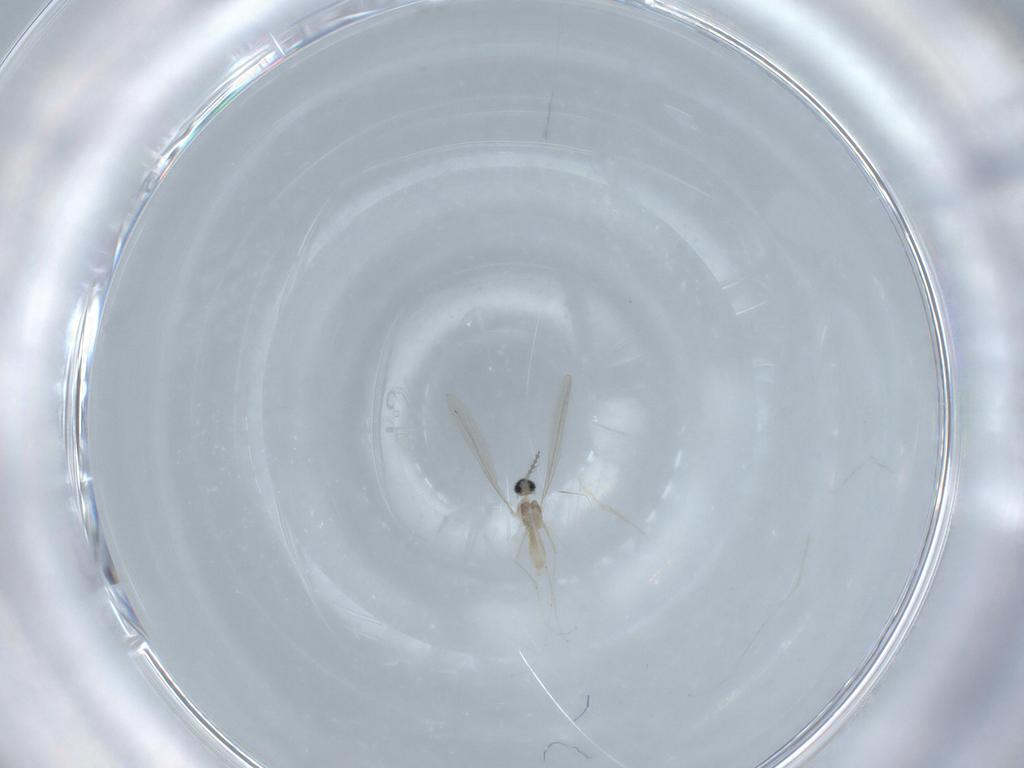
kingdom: Animalia
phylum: Arthropoda
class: Insecta
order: Diptera
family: Cecidomyiidae
